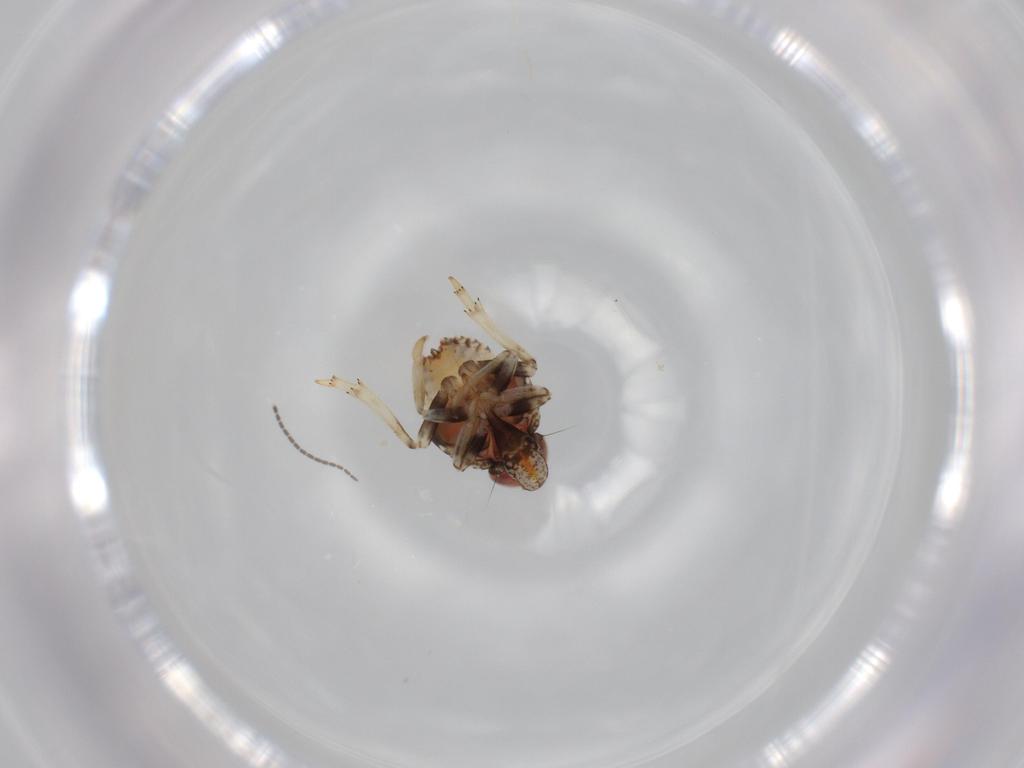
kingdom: Animalia
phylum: Arthropoda
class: Insecta
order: Hemiptera
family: Issidae
